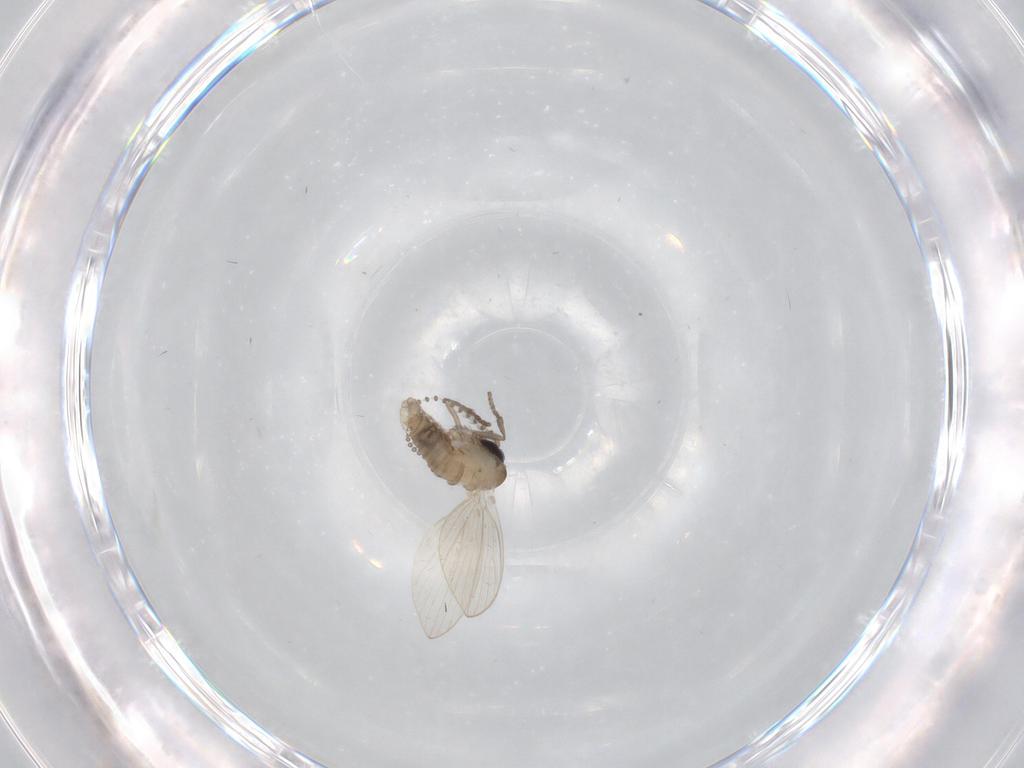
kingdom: Animalia
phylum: Arthropoda
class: Insecta
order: Diptera
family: Psychodidae
